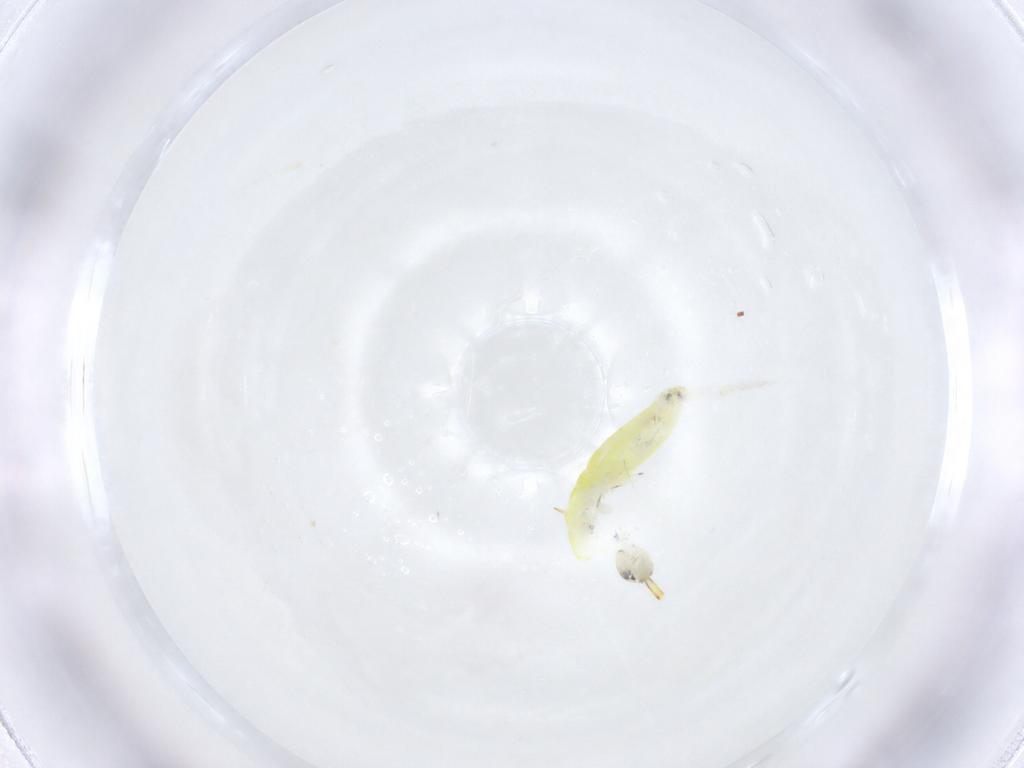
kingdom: Animalia
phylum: Arthropoda
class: Collembola
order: Entomobryomorpha
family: Entomobryidae
